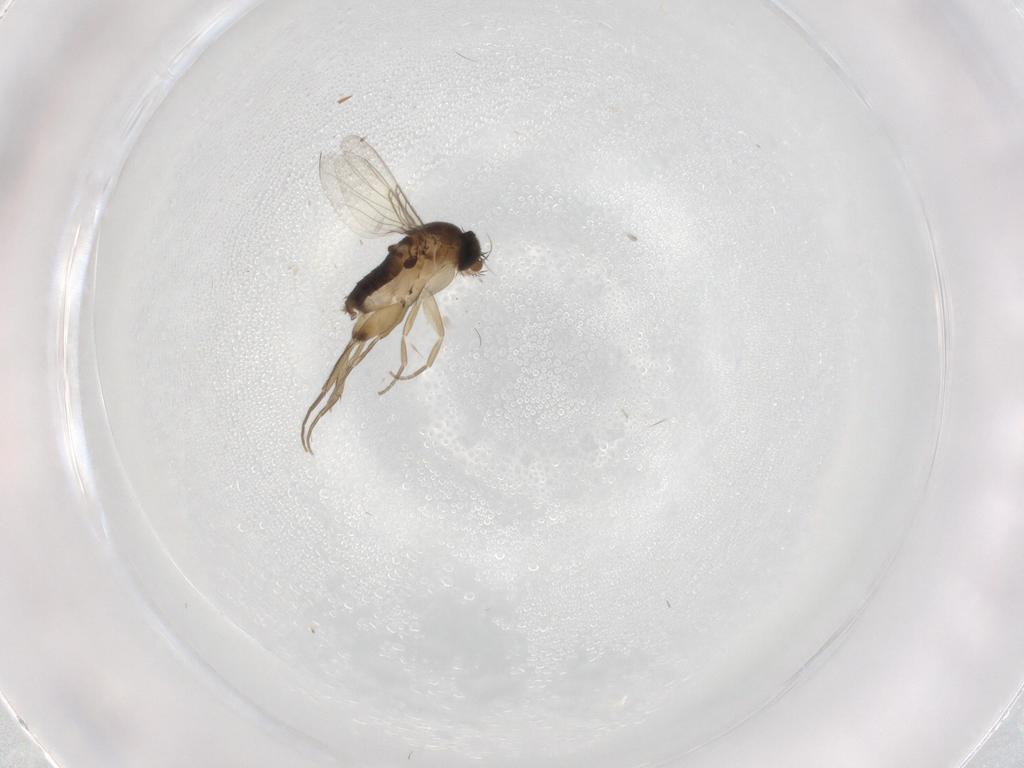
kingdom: Animalia
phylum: Arthropoda
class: Insecta
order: Diptera
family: Phoridae
